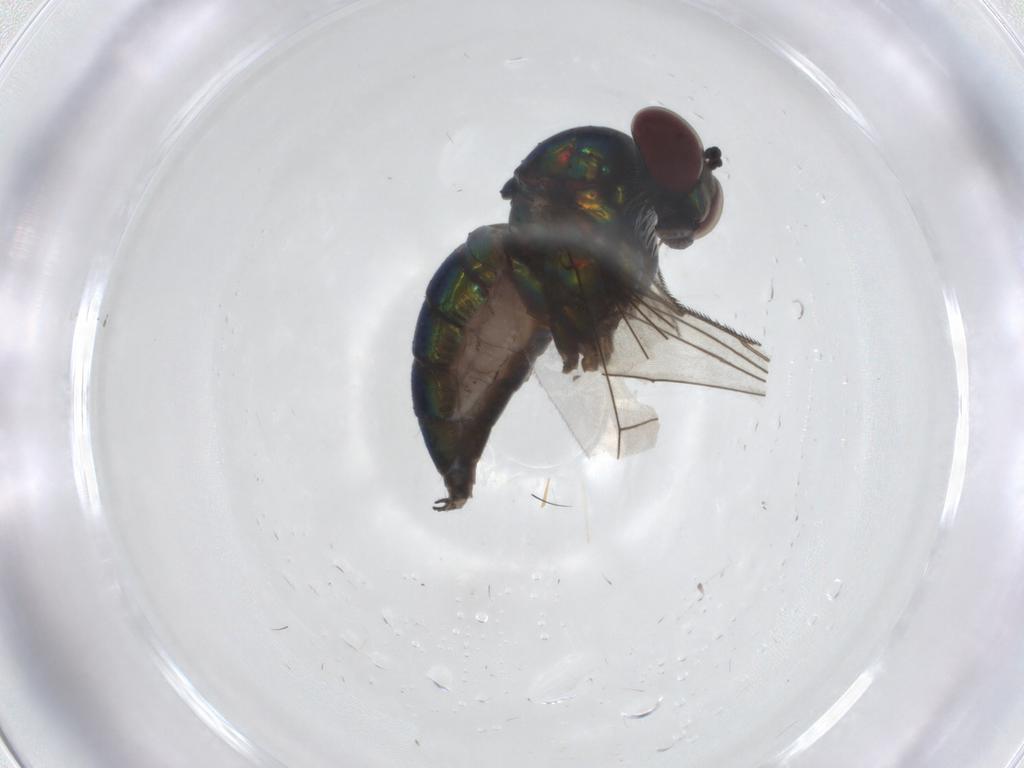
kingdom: Animalia
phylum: Arthropoda
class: Insecta
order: Diptera
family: Dolichopodidae
